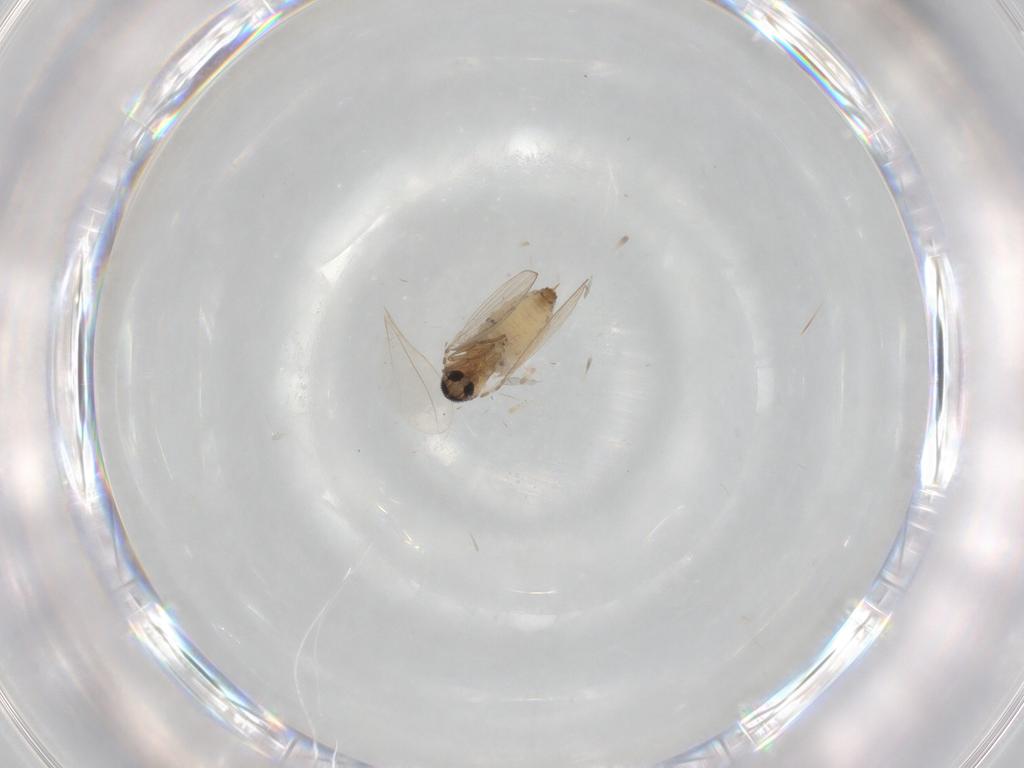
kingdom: Animalia
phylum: Arthropoda
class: Insecta
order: Diptera
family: Psychodidae
